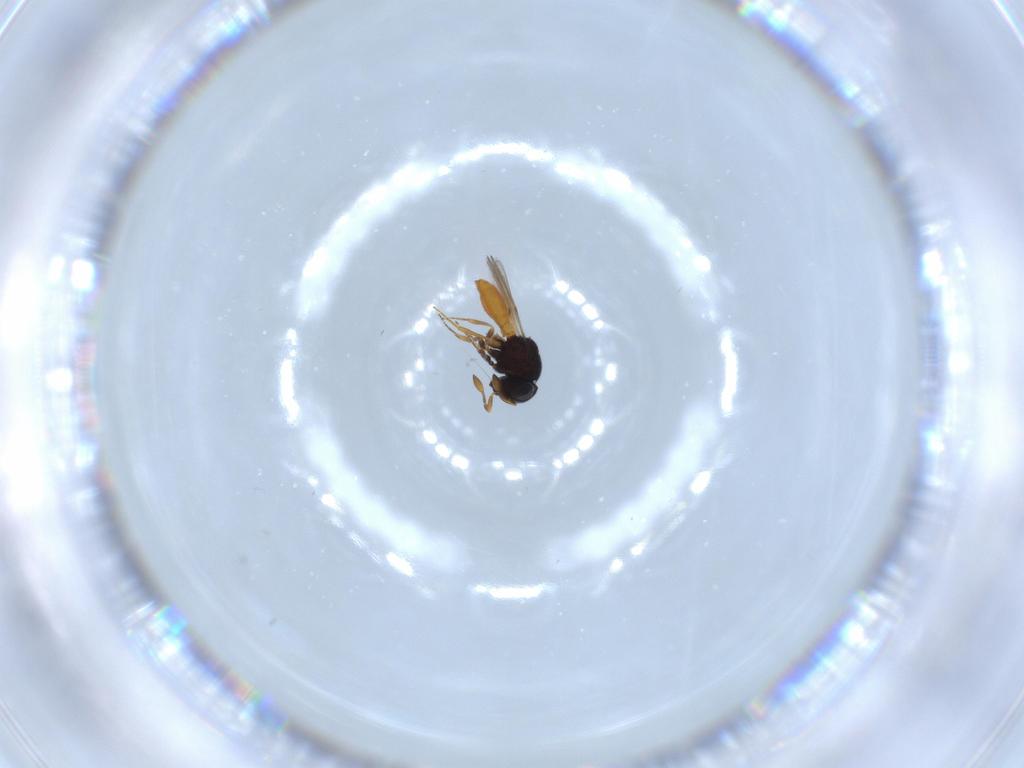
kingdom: Animalia
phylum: Arthropoda
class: Insecta
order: Hymenoptera
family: Scelionidae
